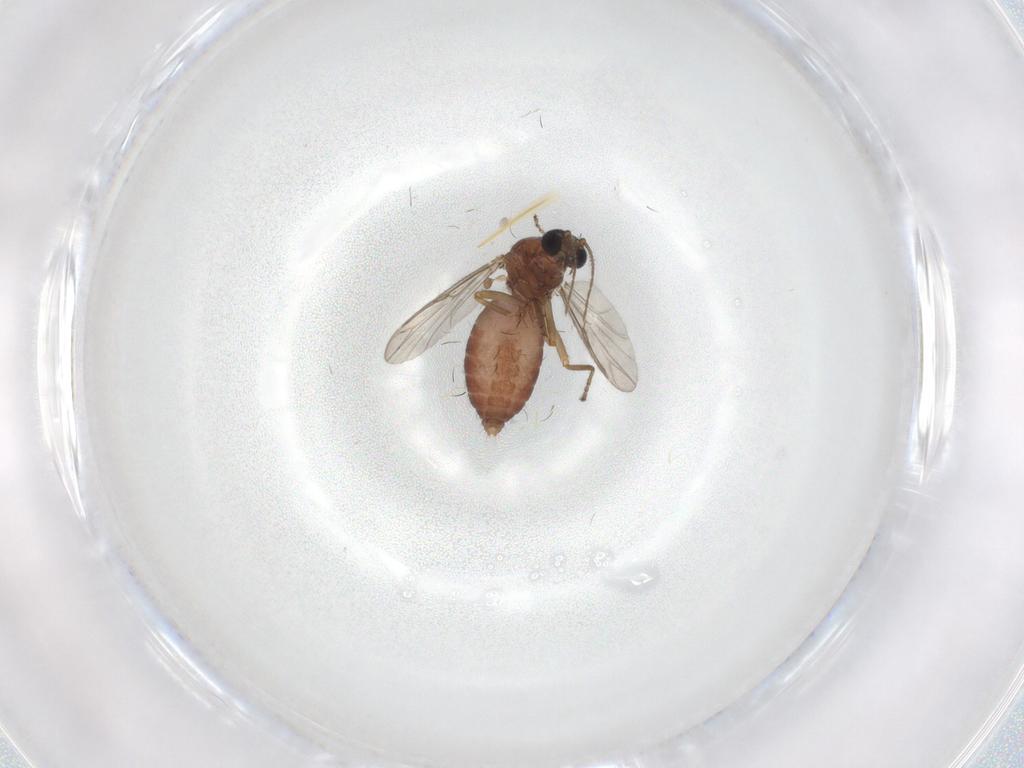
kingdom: Animalia
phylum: Arthropoda
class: Insecta
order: Diptera
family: Ceratopogonidae
